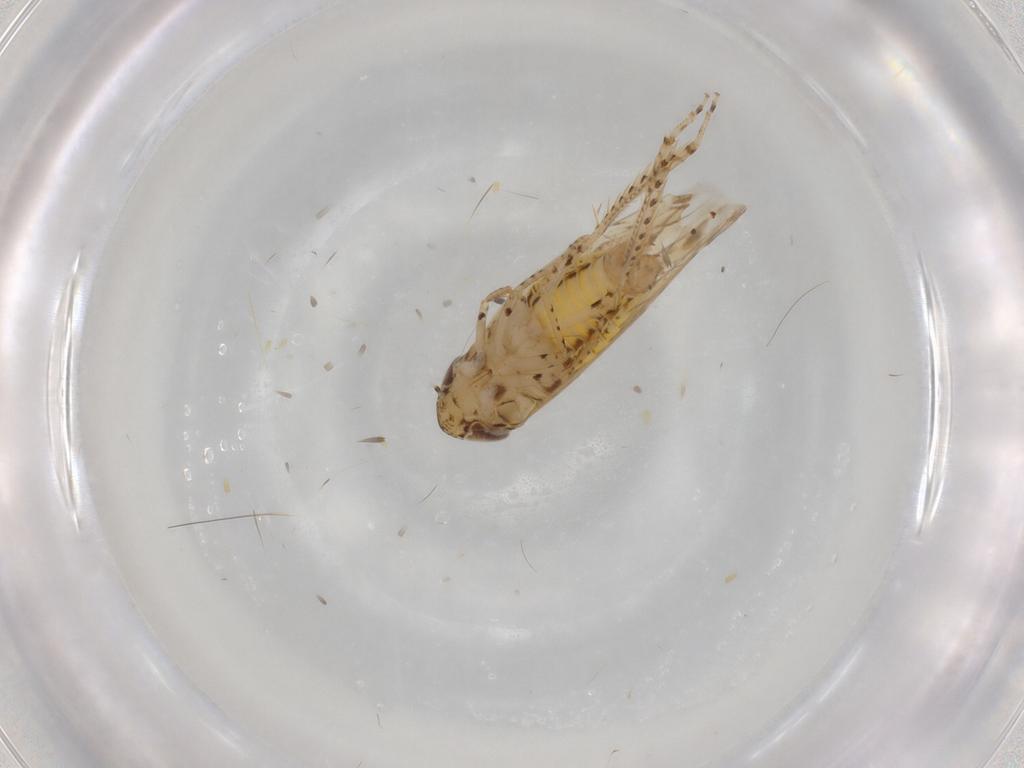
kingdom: Animalia
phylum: Arthropoda
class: Insecta
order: Hemiptera
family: Cicadellidae
